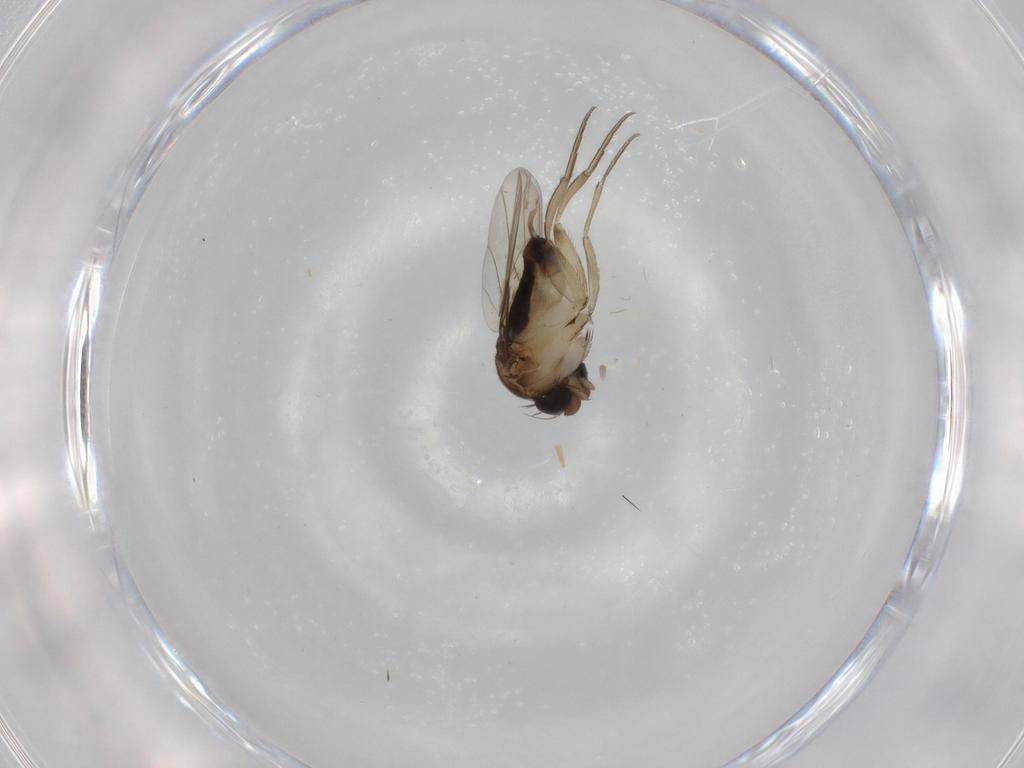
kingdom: Animalia
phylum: Arthropoda
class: Insecta
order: Diptera
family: Phoridae
